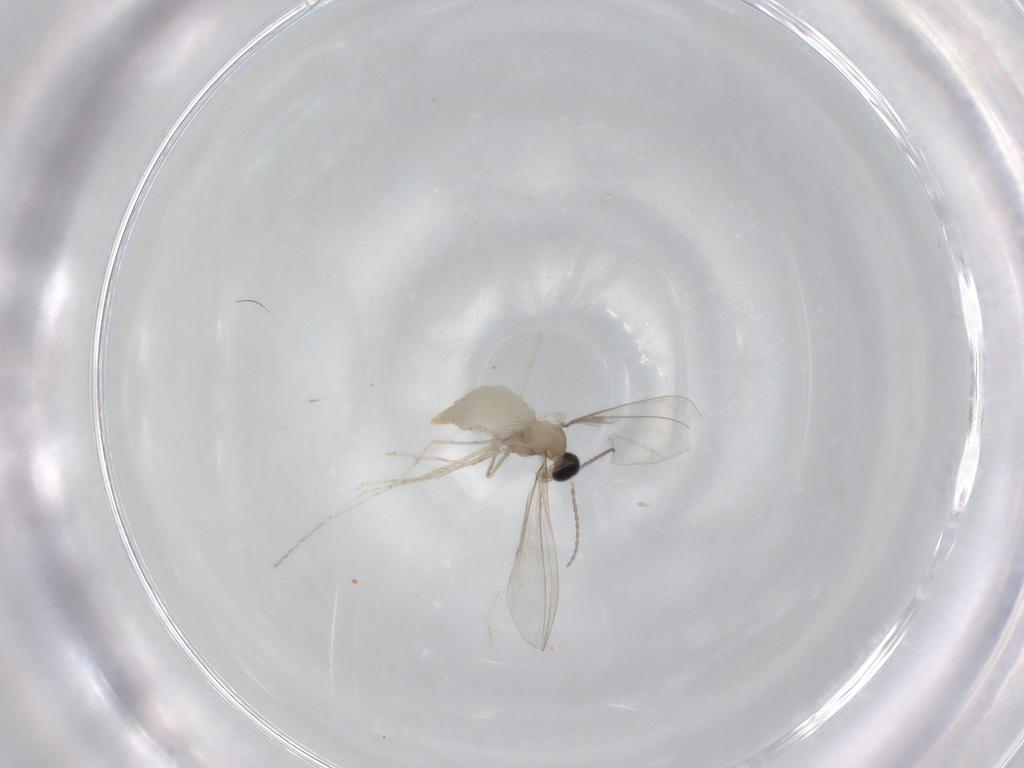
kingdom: Animalia
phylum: Arthropoda
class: Insecta
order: Diptera
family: Cecidomyiidae
